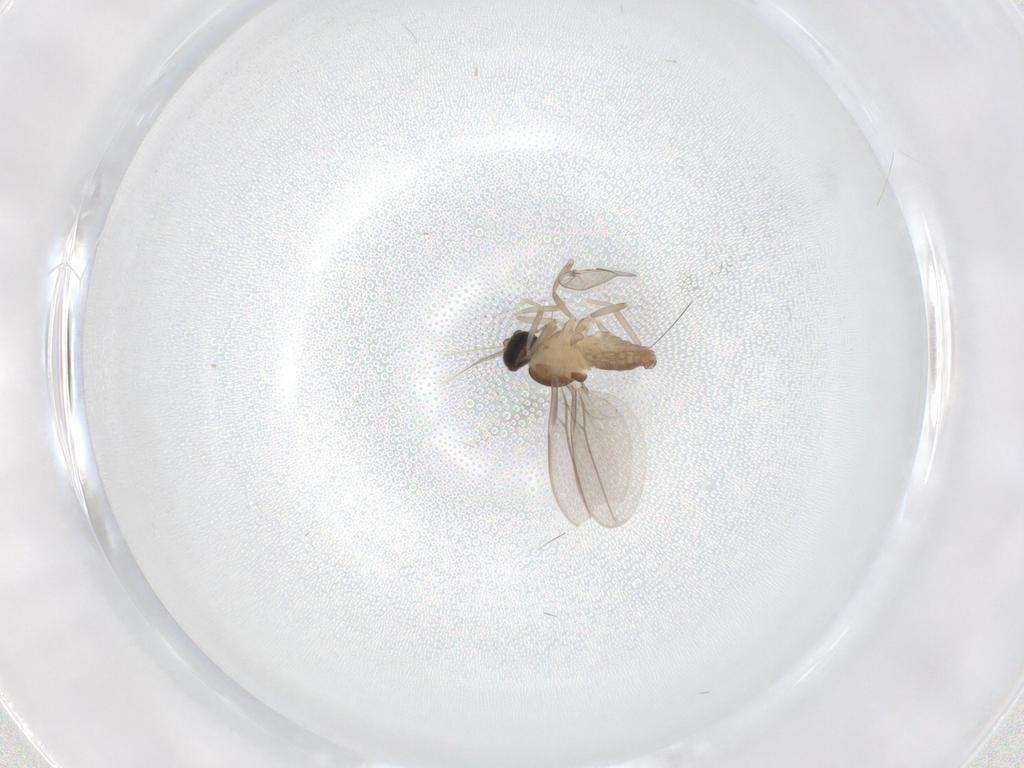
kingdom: Animalia
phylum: Arthropoda
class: Insecta
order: Diptera
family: Cecidomyiidae
